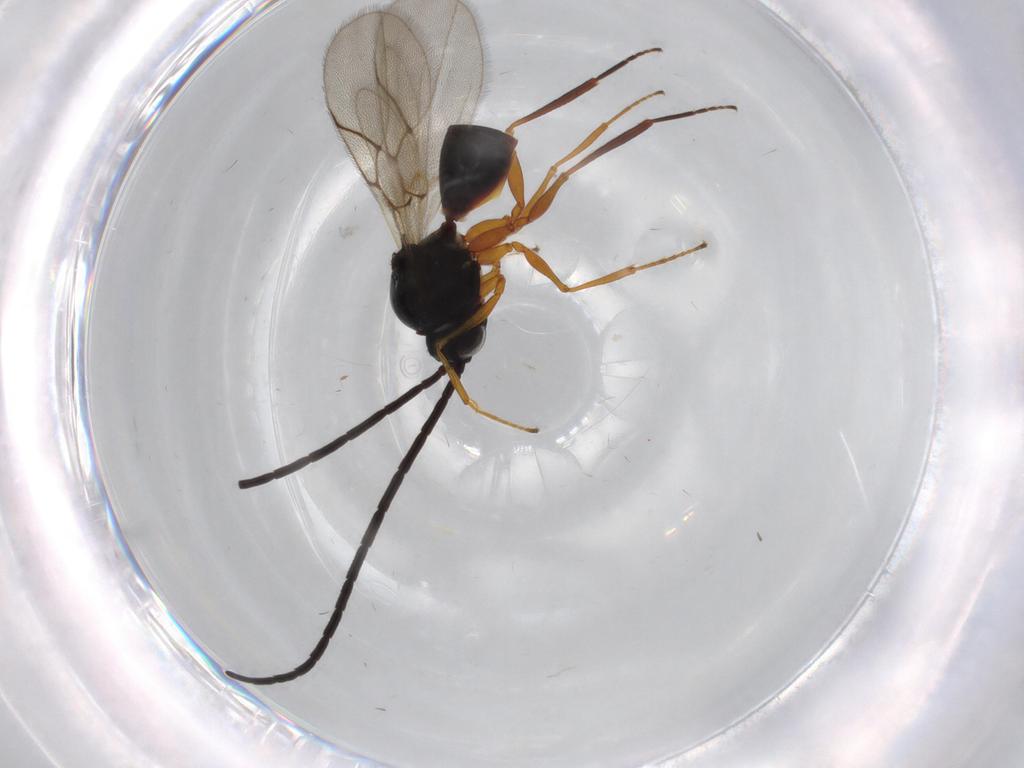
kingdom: Animalia
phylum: Arthropoda
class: Insecta
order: Hymenoptera
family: Figitidae
